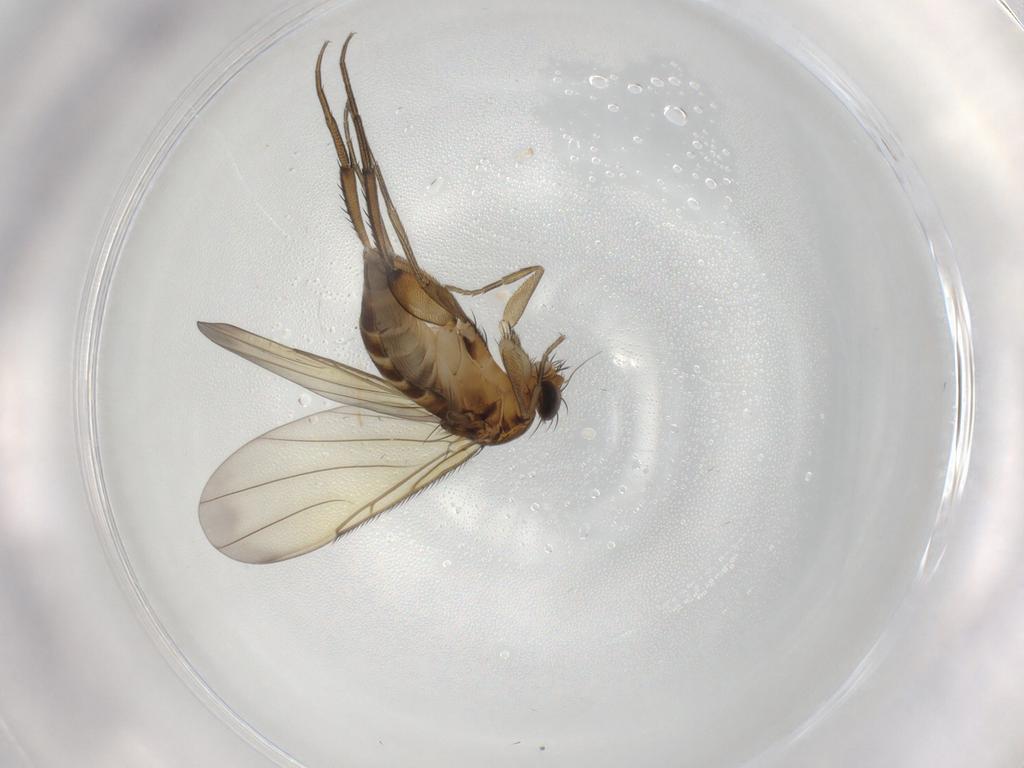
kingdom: Animalia
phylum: Arthropoda
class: Insecta
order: Diptera
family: Phoridae
